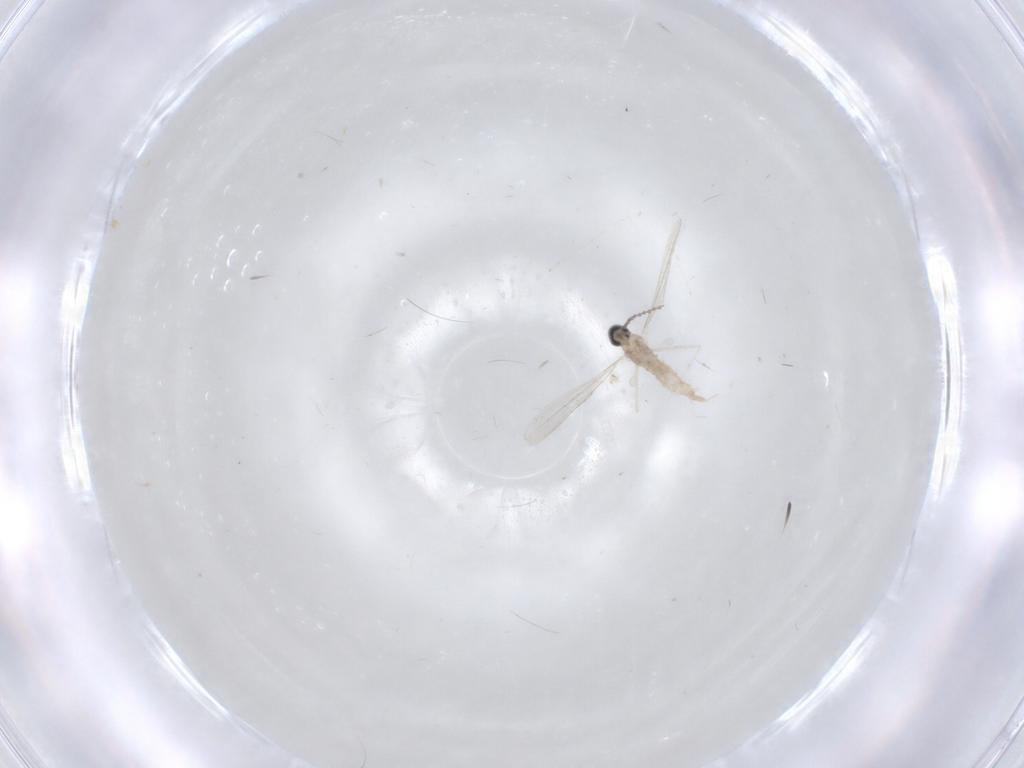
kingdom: Animalia
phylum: Arthropoda
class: Insecta
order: Diptera
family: Cecidomyiidae
